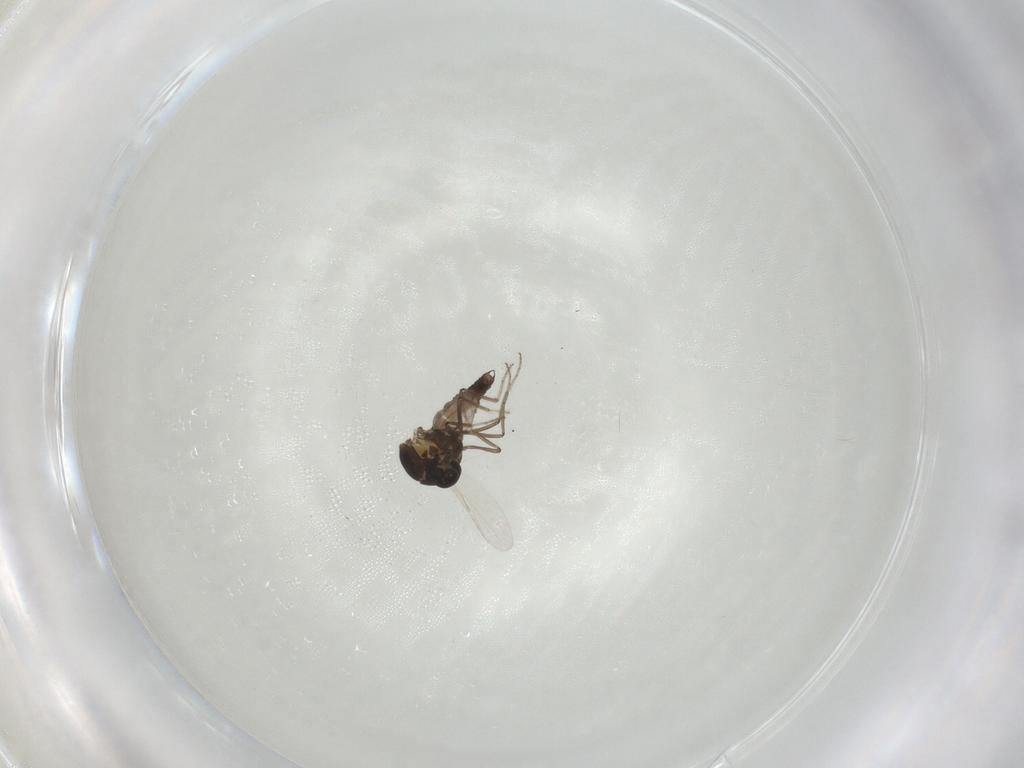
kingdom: Animalia
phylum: Arthropoda
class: Insecta
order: Diptera
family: Ceratopogonidae
